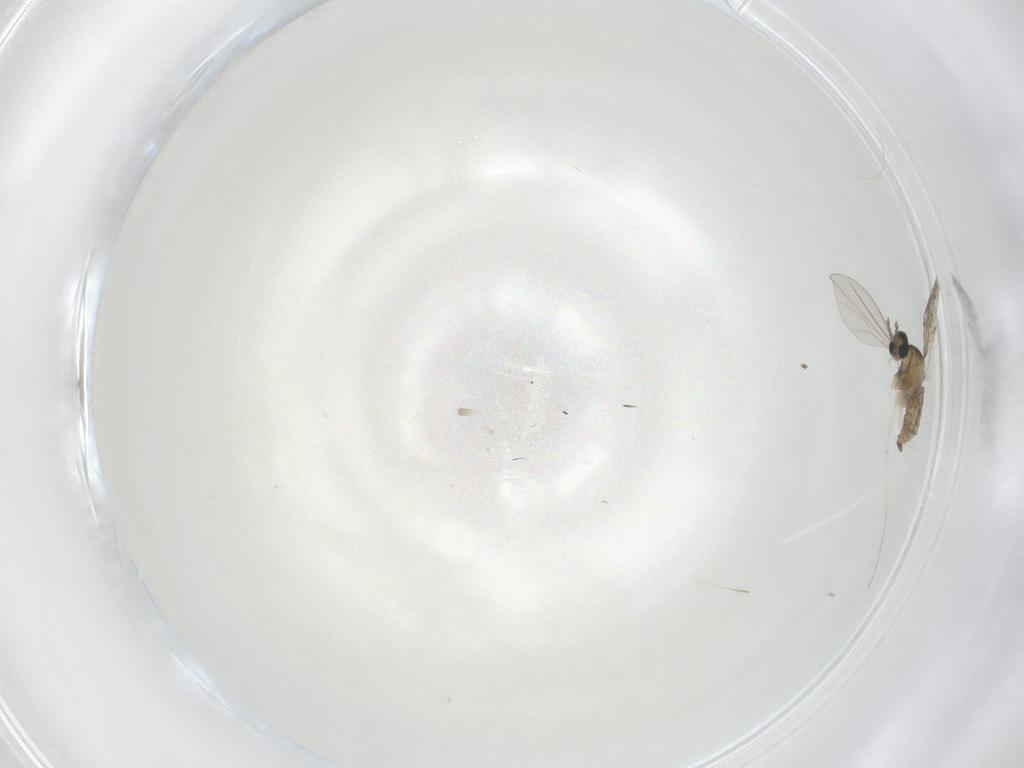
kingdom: Animalia
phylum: Arthropoda
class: Insecta
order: Diptera
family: Cecidomyiidae
